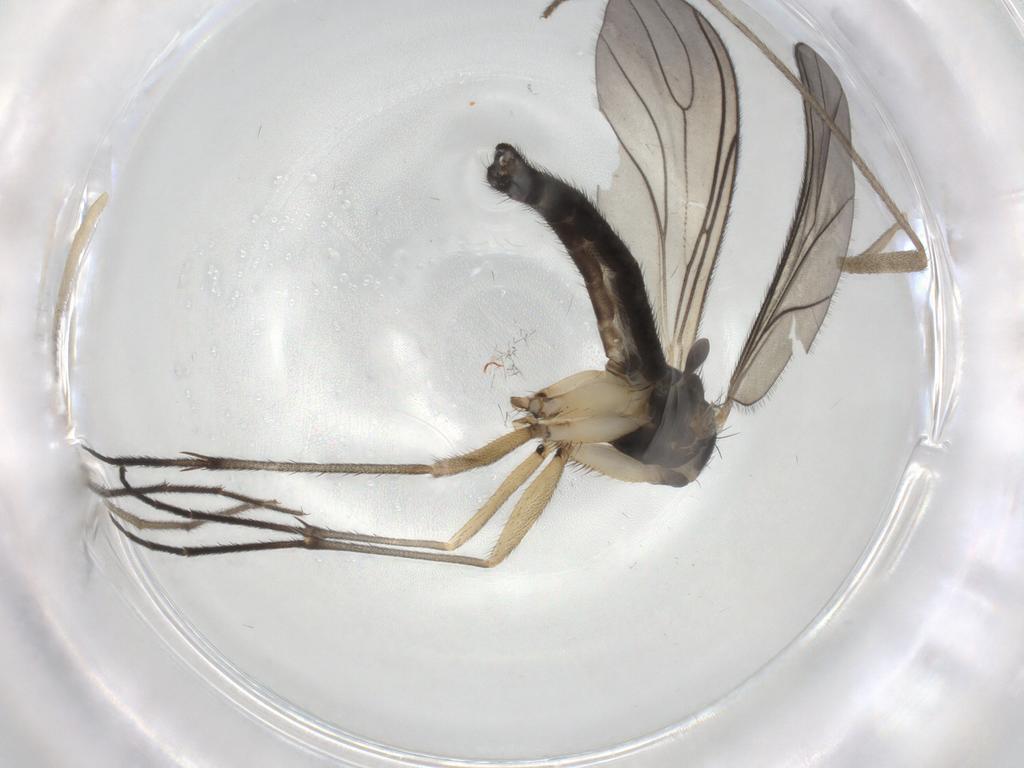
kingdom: Animalia
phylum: Arthropoda
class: Insecta
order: Diptera
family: Sciaridae
